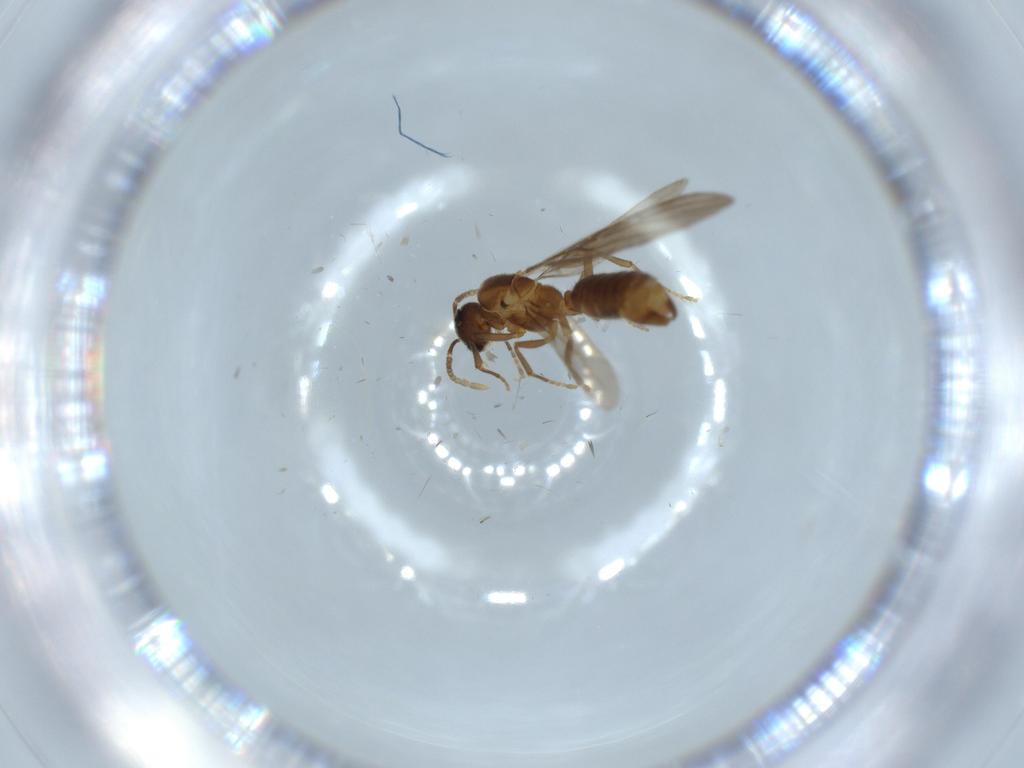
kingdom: Animalia
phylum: Arthropoda
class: Insecta
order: Hymenoptera
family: Formicidae
